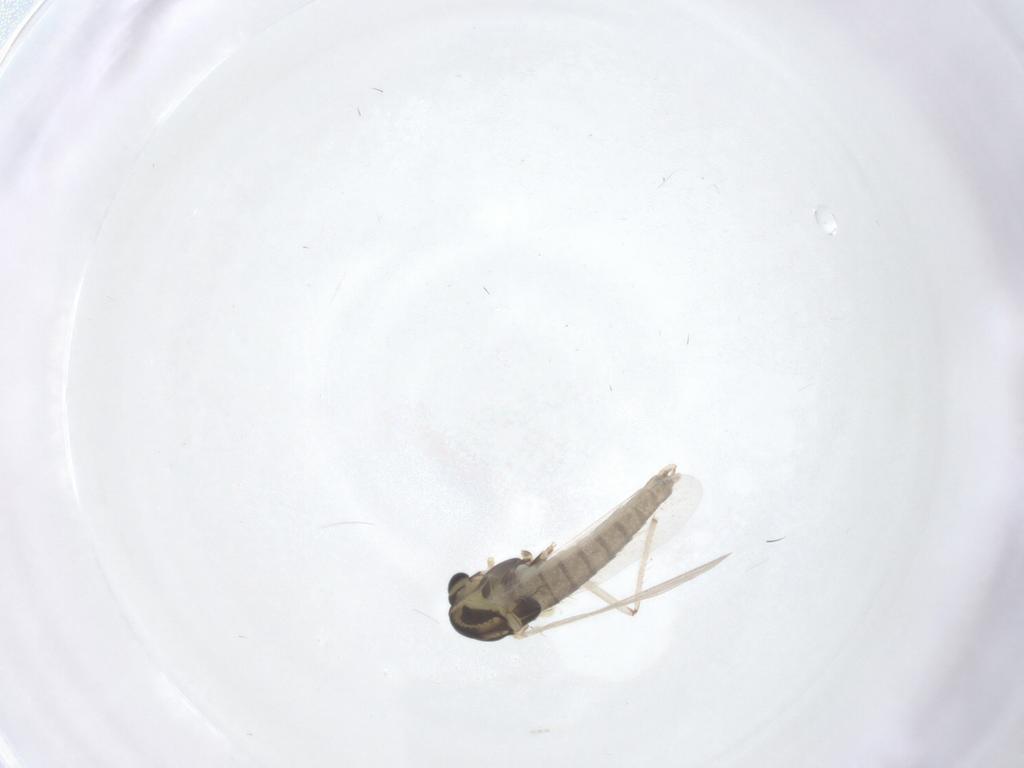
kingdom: Animalia
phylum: Arthropoda
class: Insecta
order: Diptera
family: Chironomidae
